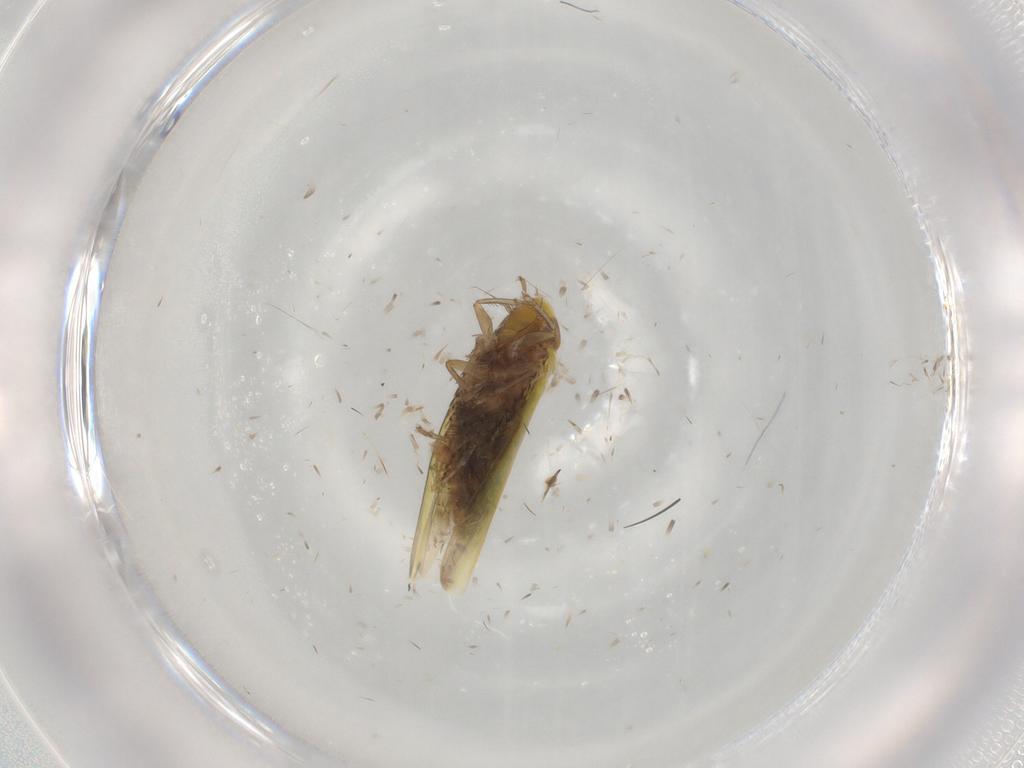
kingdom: Animalia
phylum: Arthropoda
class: Insecta
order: Hemiptera
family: Cicadellidae
